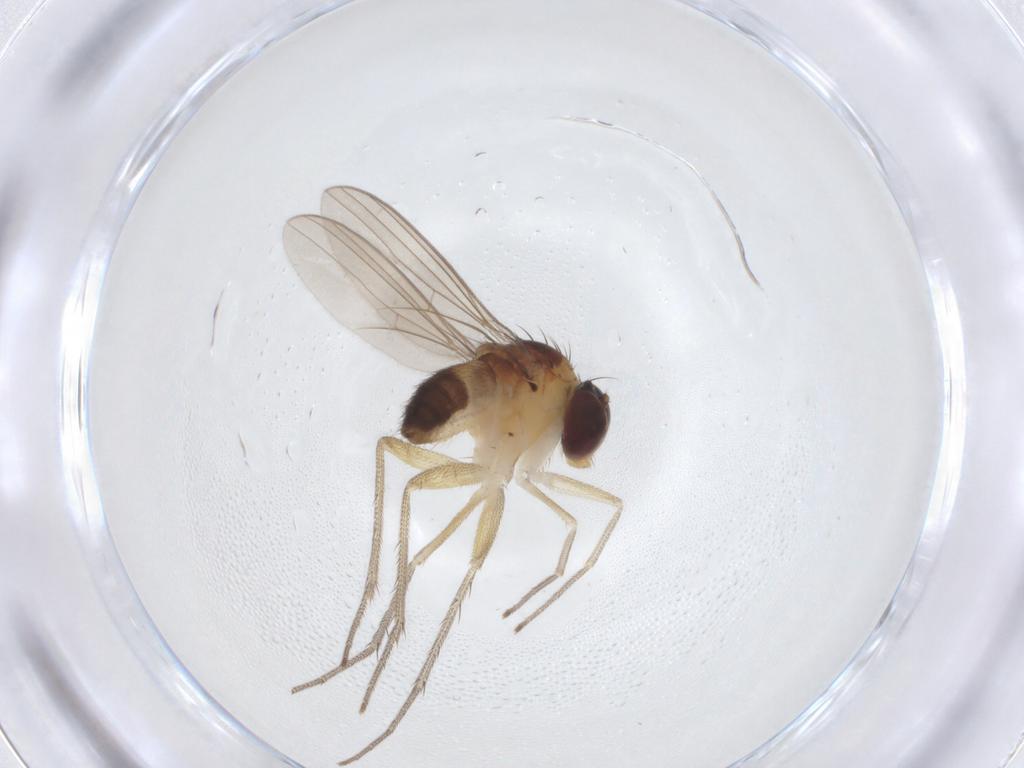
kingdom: Animalia
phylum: Arthropoda
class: Insecta
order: Diptera
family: Dolichopodidae
